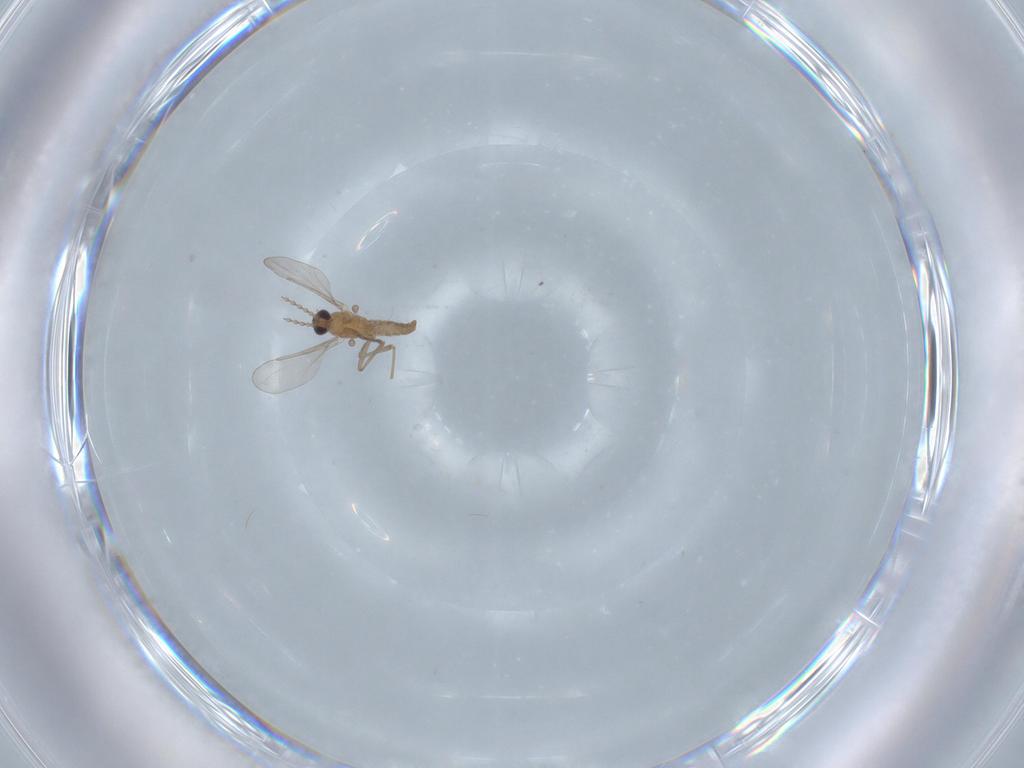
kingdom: Animalia
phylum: Arthropoda
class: Insecta
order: Diptera
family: Cecidomyiidae
